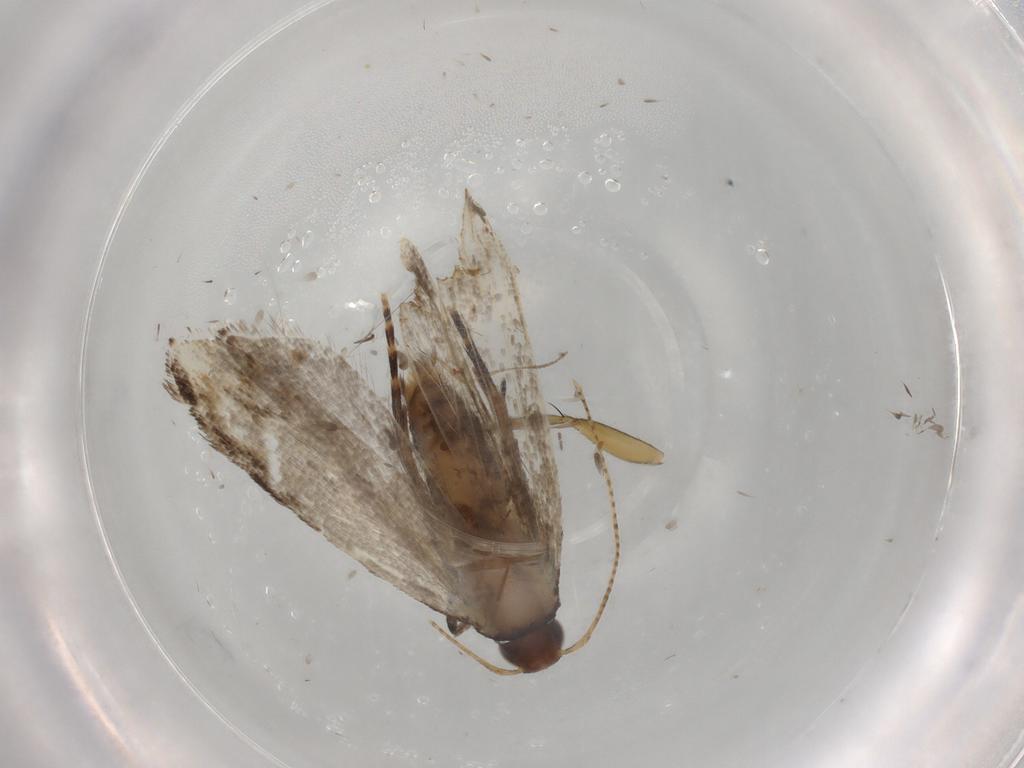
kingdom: Animalia
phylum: Arthropoda
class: Insecta
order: Lepidoptera
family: Gelechiidae
